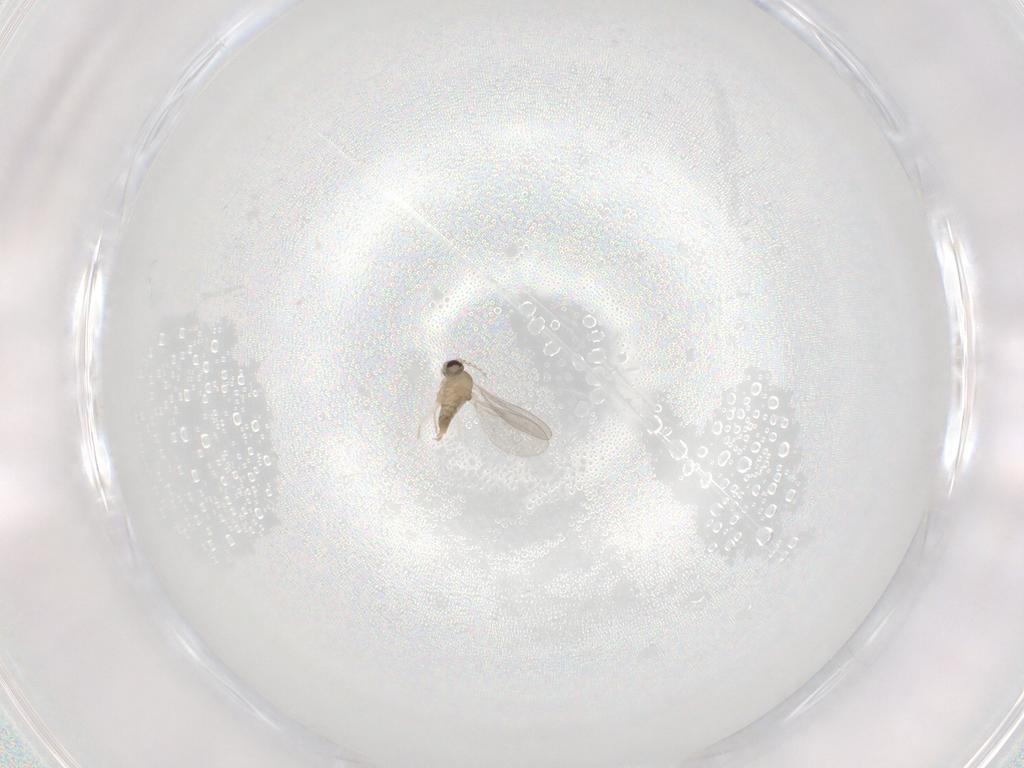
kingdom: Animalia
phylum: Arthropoda
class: Insecta
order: Diptera
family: Cecidomyiidae
